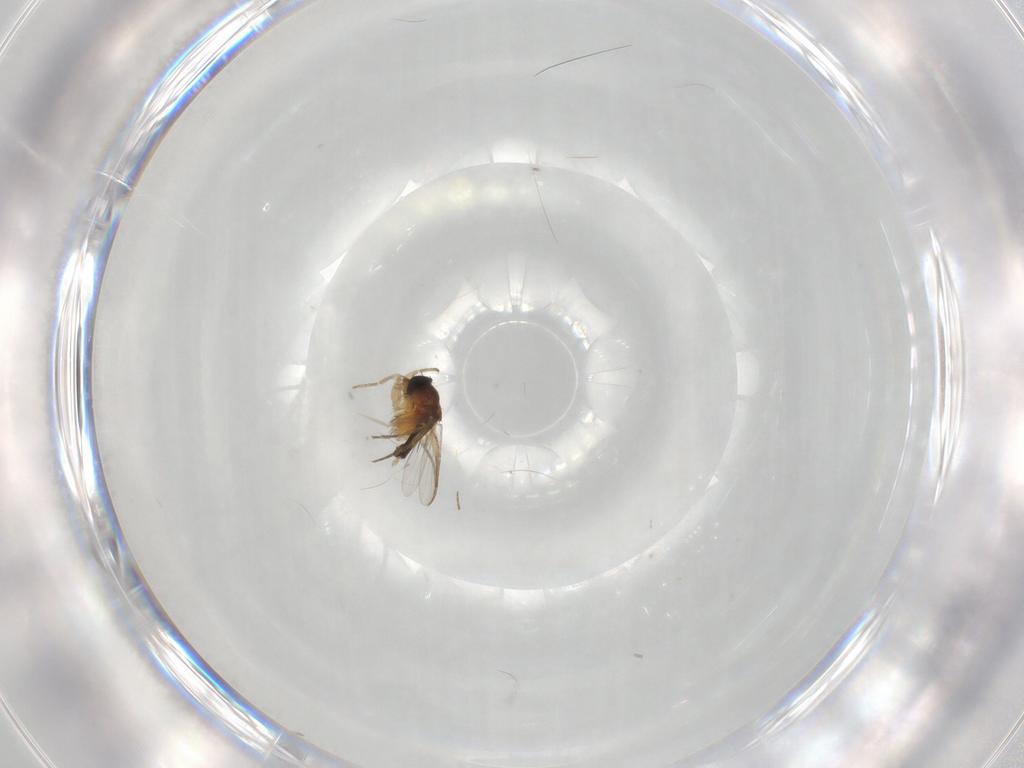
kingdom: Animalia
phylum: Arthropoda
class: Insecta
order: Diptera
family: Phoridae
